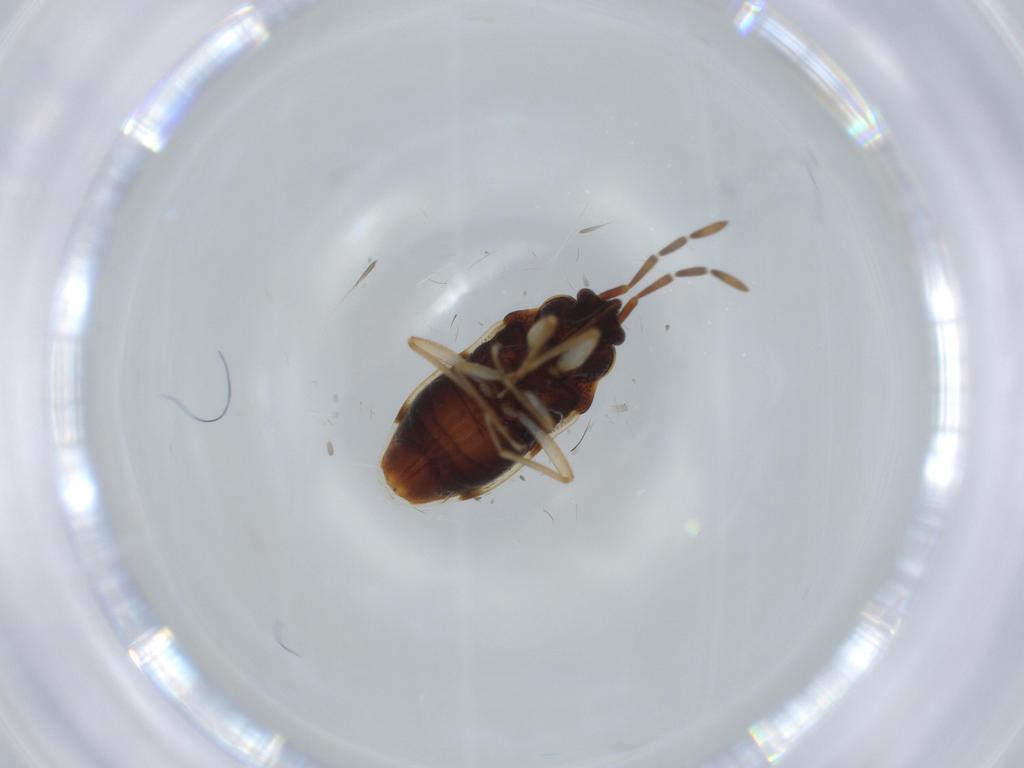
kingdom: Animalia
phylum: Arthropoda
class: Insecta
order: Hemiptera
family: Rhyparochromidae
